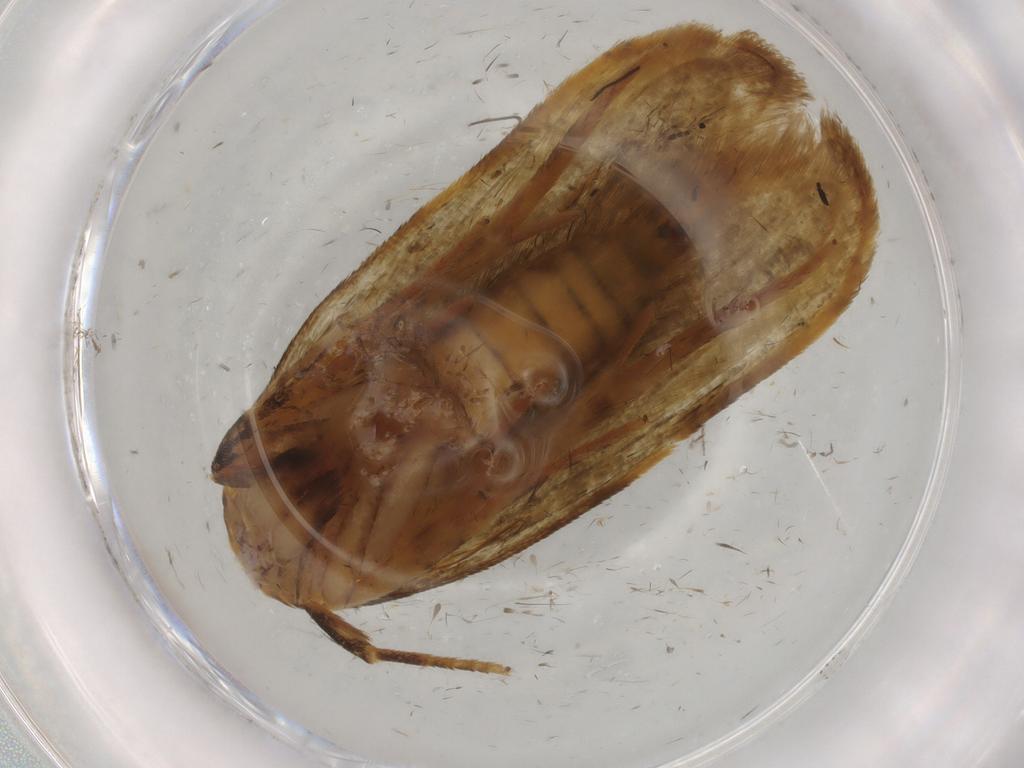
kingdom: Animalia
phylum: Arthropoda
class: Insecta
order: Lepidoptera
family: Blastobasidae
